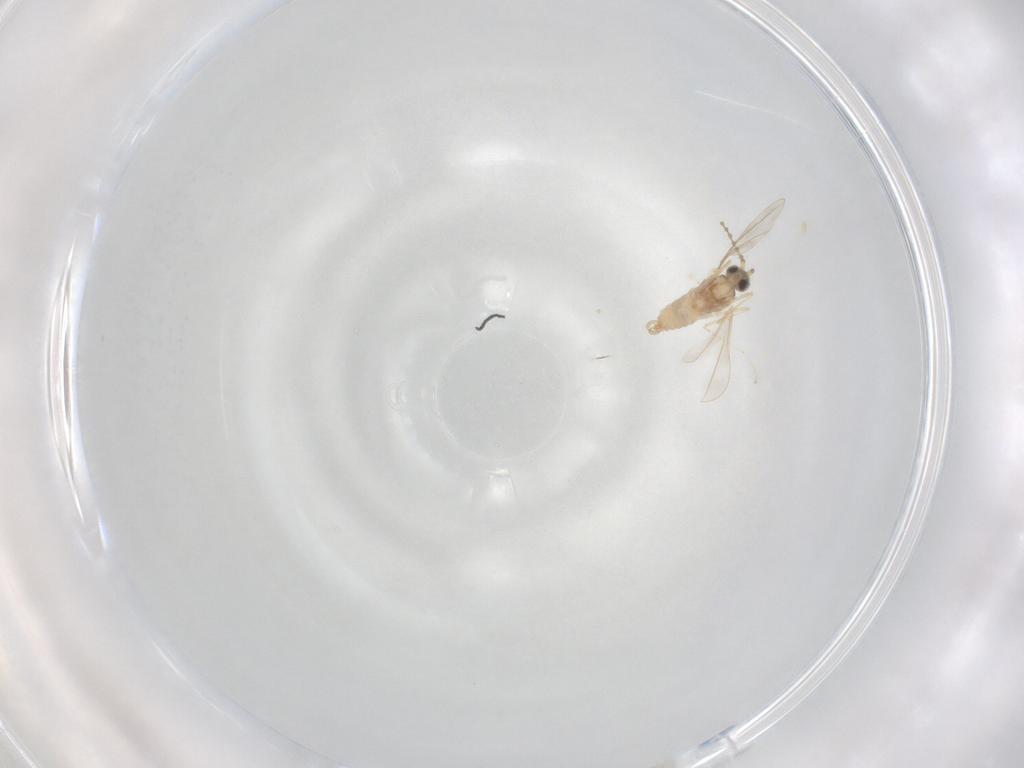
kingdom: Animalia
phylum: Arthropoda
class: Insecta
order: Diptera
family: Cecidomyiidae
